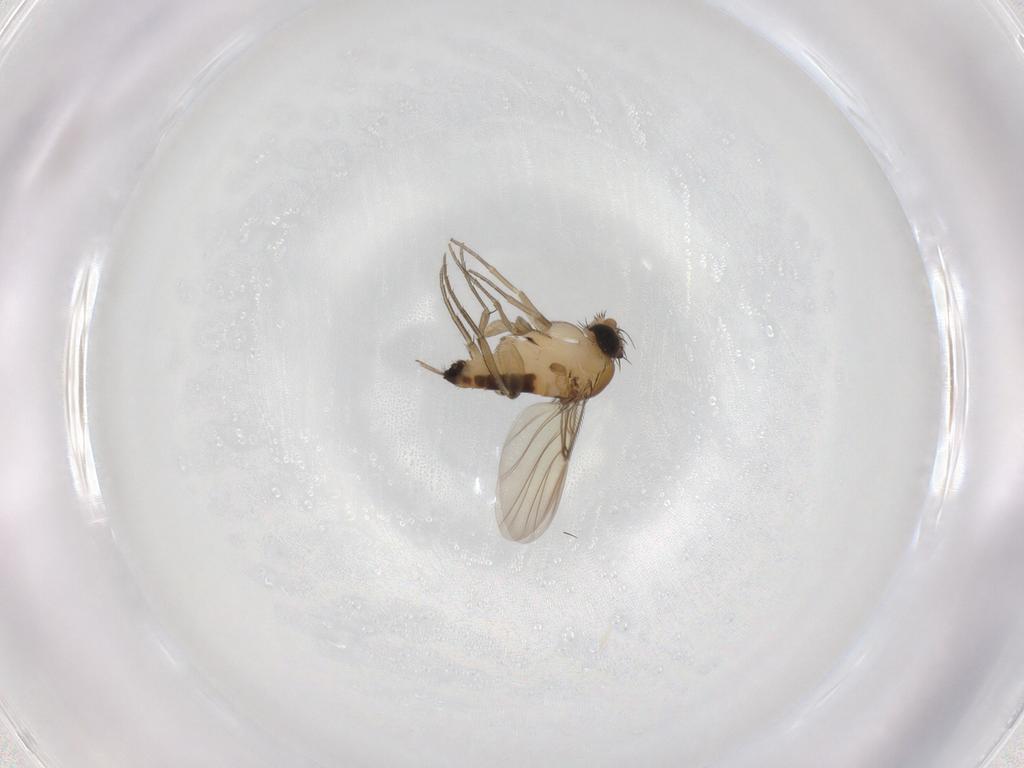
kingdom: Animalia
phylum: Arthropoda
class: Insecta
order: Diptera
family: Phoridae
